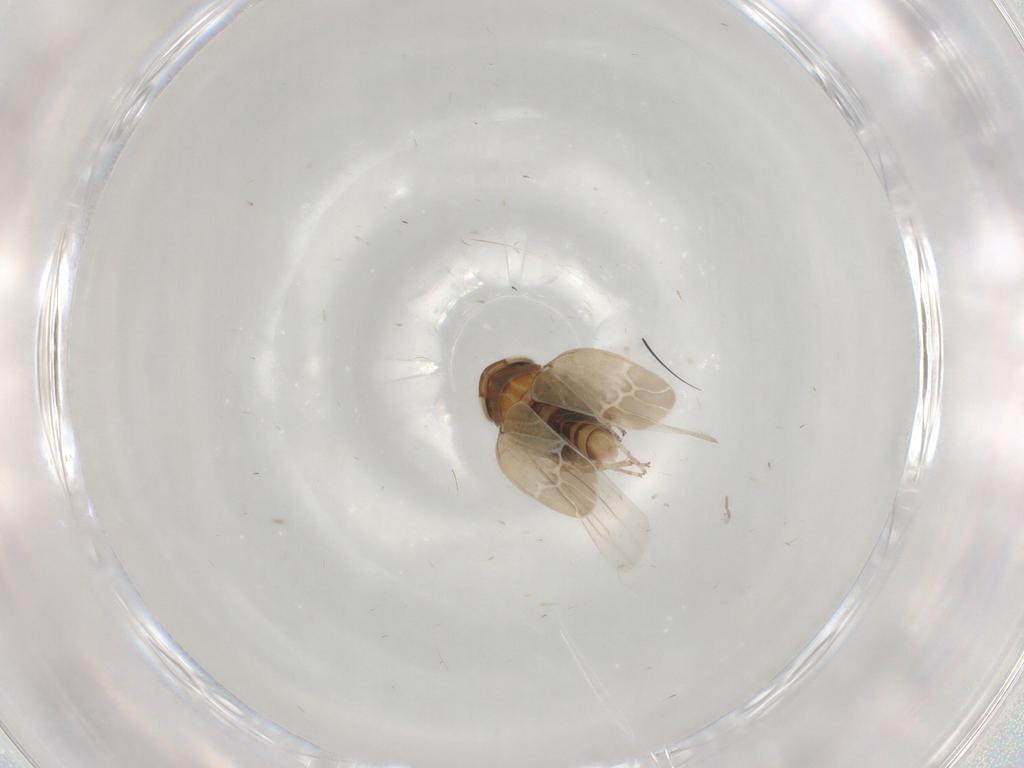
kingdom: Animalia
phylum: Arthropoda
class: Insecta
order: Hemiptera
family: Cicadellidae
